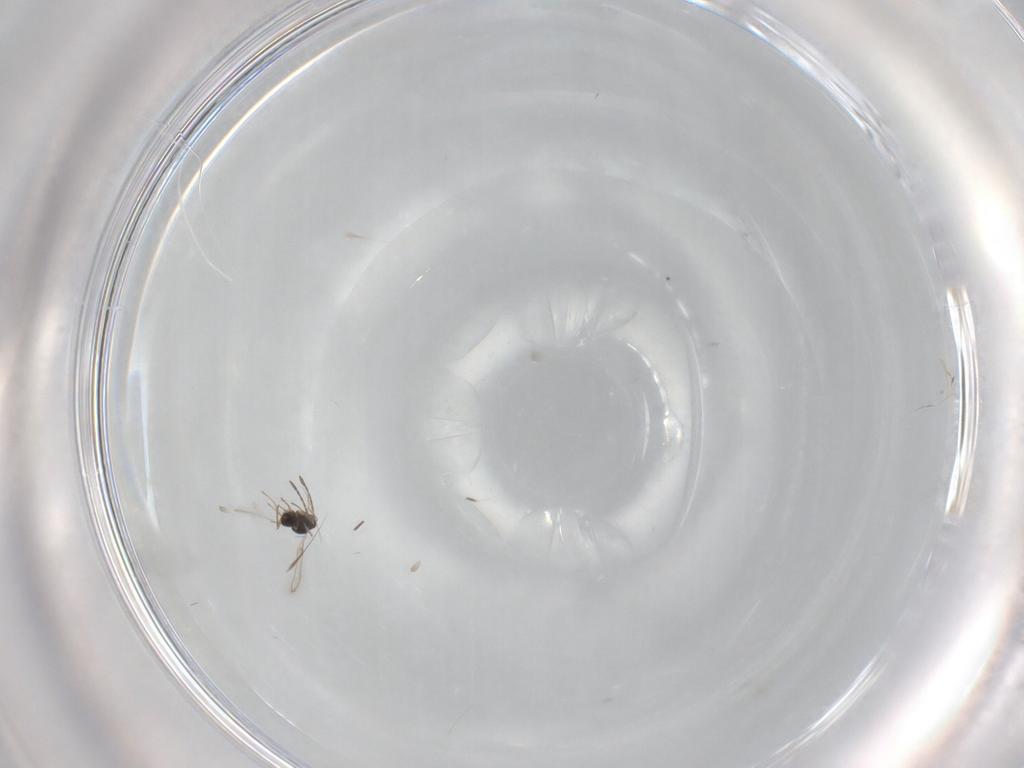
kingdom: Animalia
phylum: Arthropoda
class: Insecta
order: Hymenoptera
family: Mymaridae
